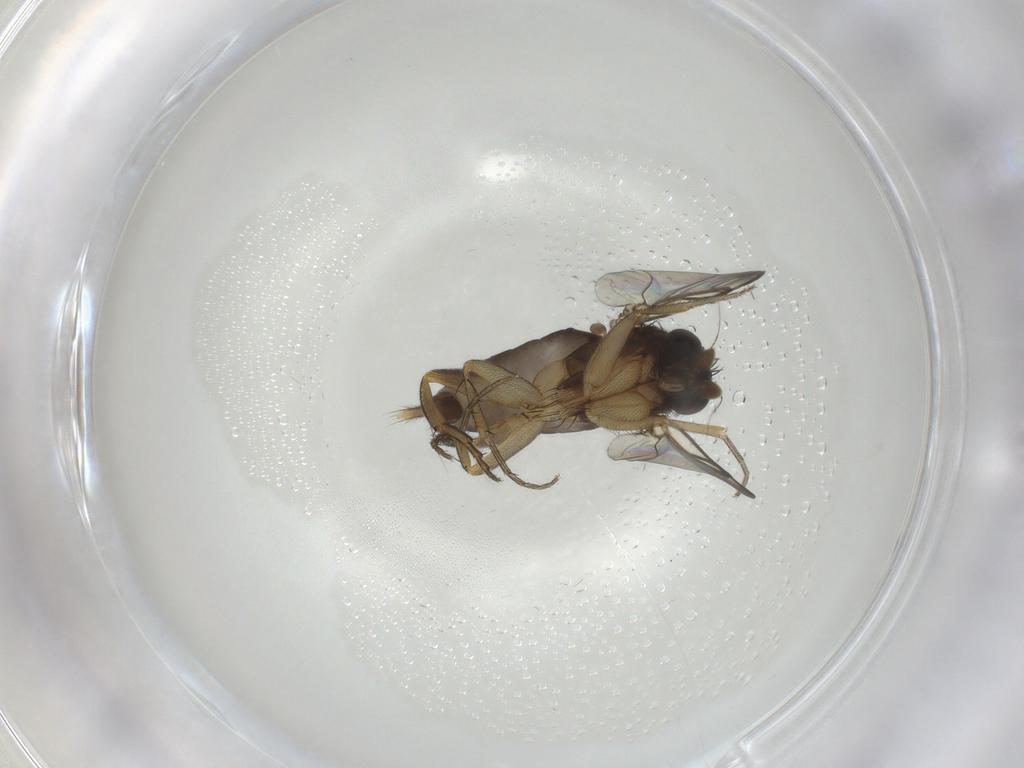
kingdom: Animalia
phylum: Arthropoda
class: Insecta
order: Diptera
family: Phoridae
